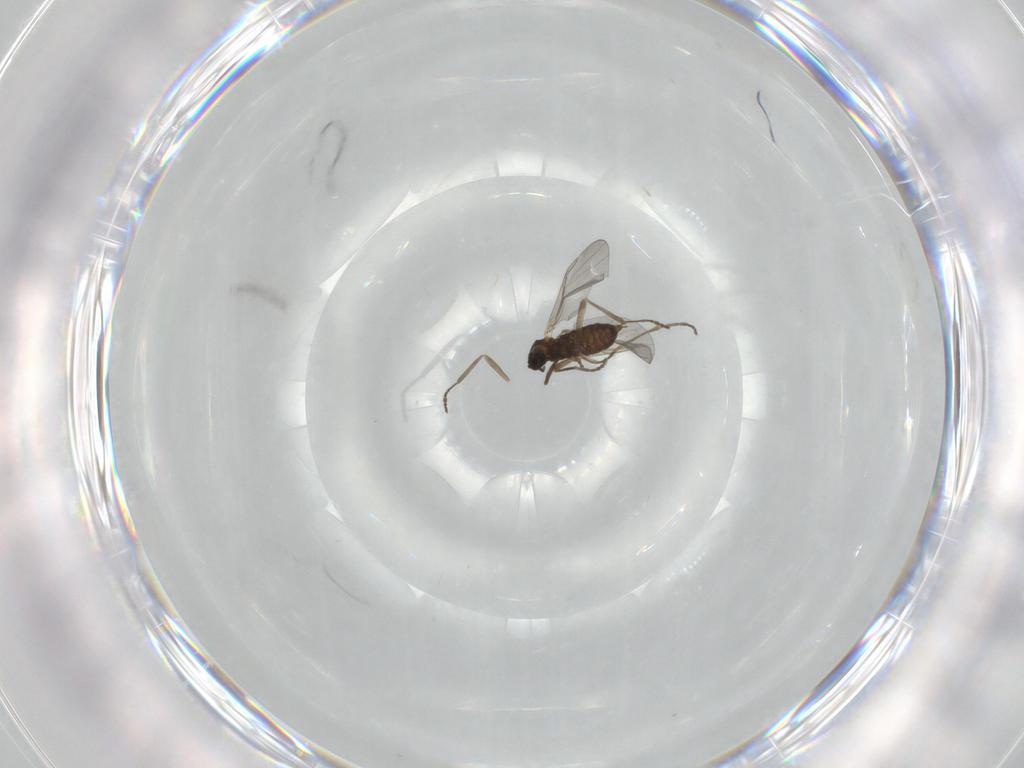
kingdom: Animalia
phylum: Arthropoda
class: Insecta
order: Diptera
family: Cecidomyiidae
